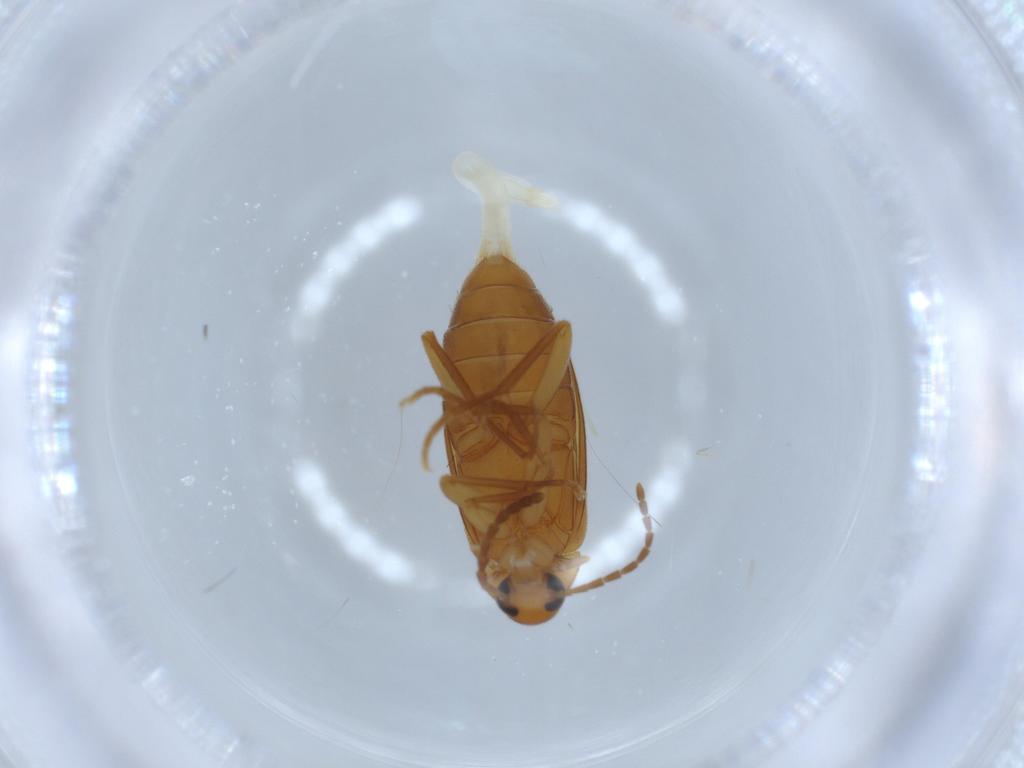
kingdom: Animalia
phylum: Arthropoda
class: Insecta
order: Coleoptera
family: Scraptiidae
